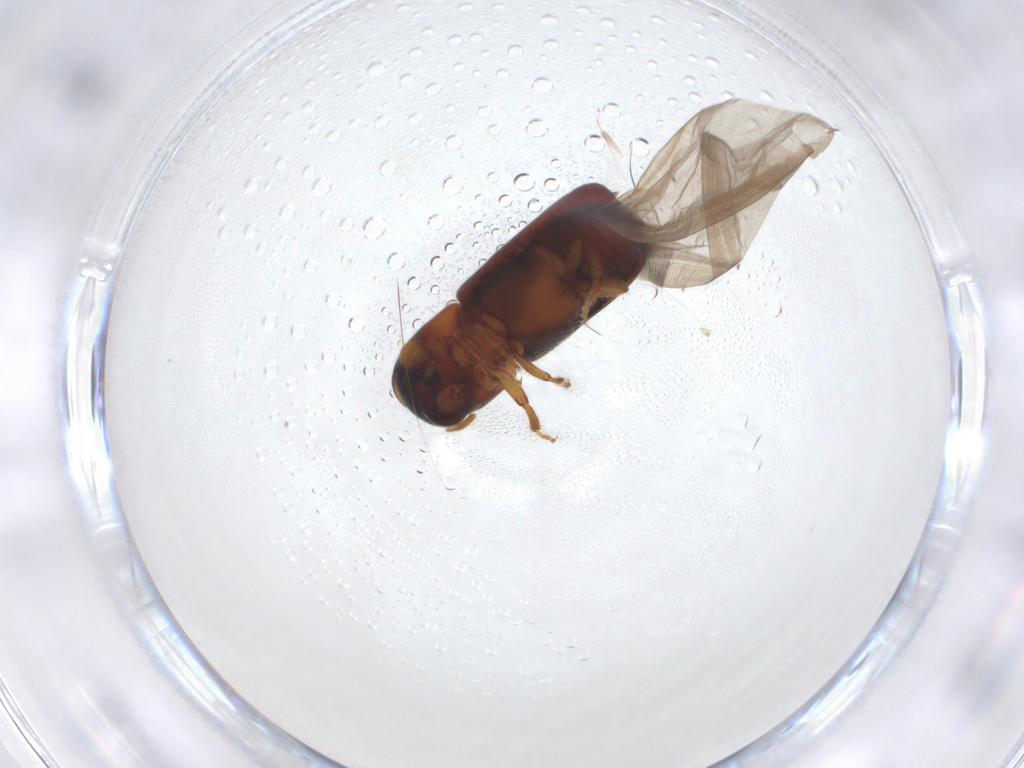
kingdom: Animalia
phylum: Arthropoda
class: Insecta
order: Coleoptera
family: Curculionidae
